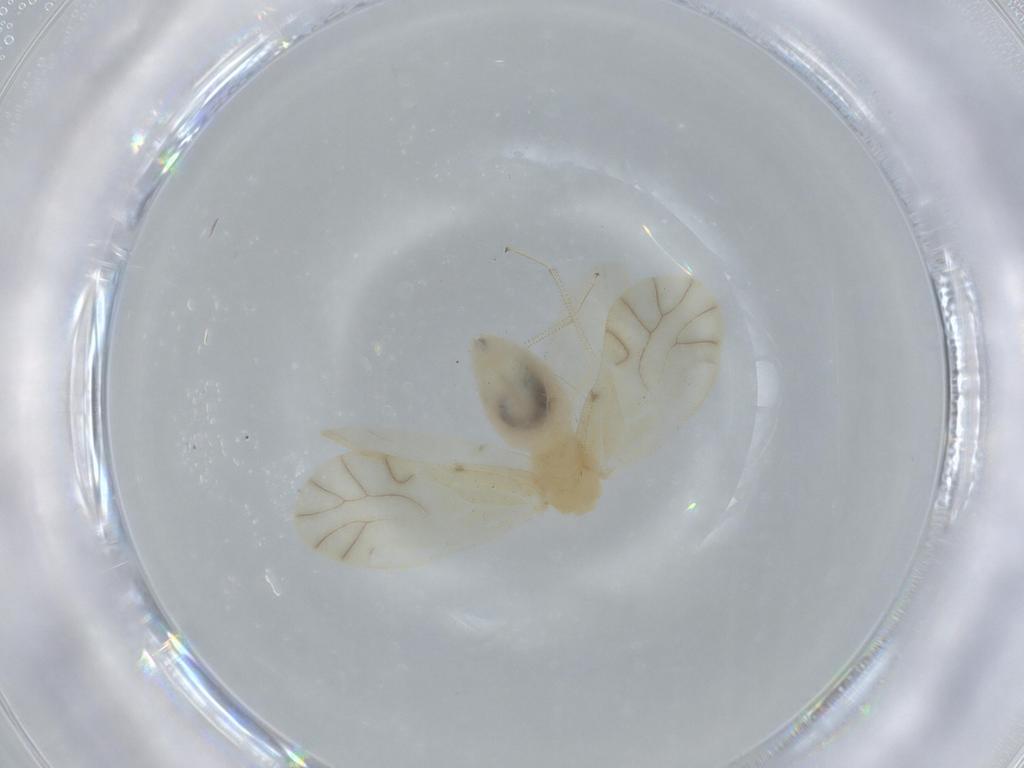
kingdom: Animalia
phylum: Arthropoda
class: Insecta
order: Psocodea
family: Caeciliusidae
